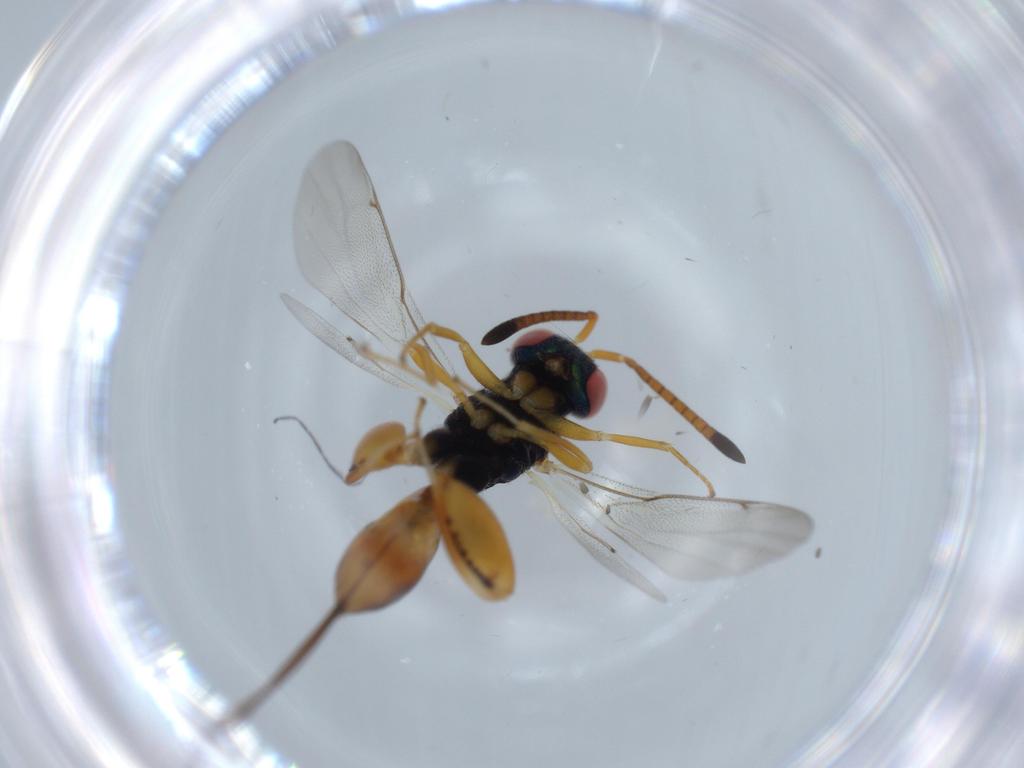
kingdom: Animalia
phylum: Arthropoda
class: Insecta
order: Hymenoptera
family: Torymidae
